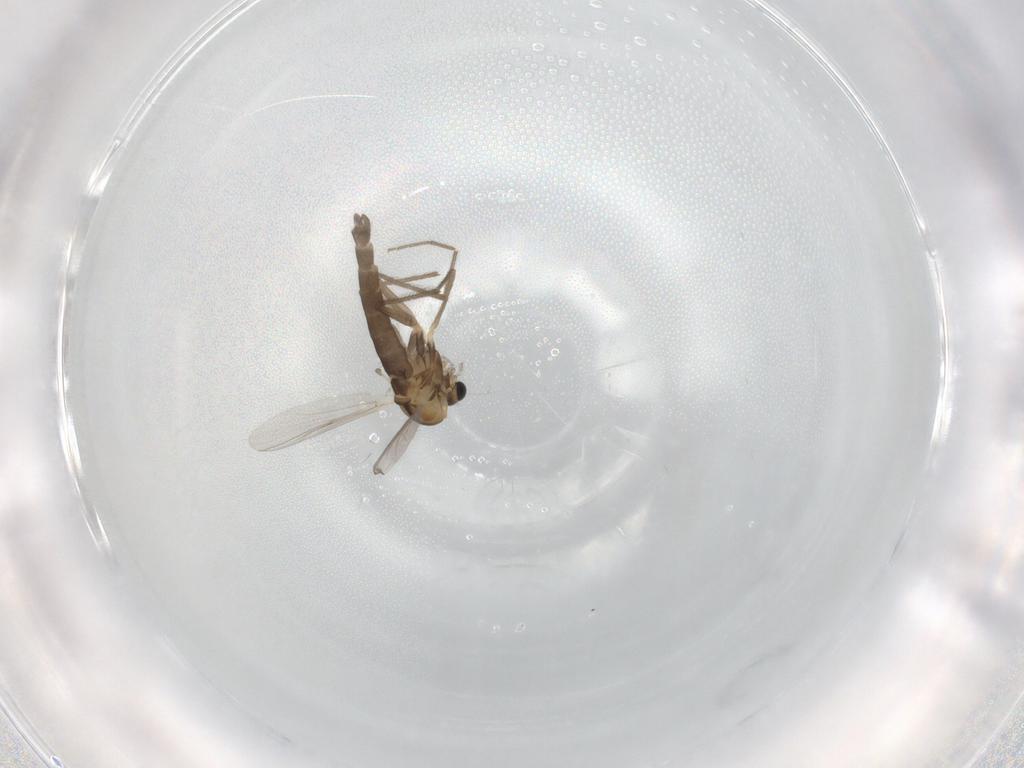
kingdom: Animalia
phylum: Arthropoda
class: Insecta
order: Diptera
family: Chironomidae
